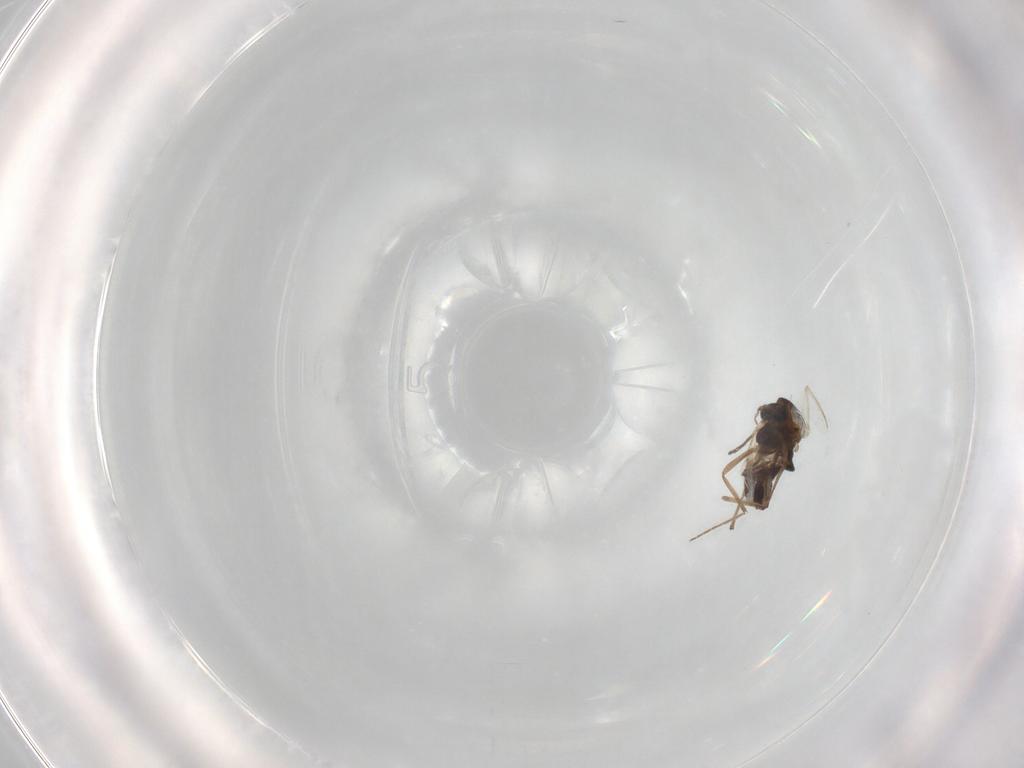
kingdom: Animalia
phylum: Arthropoda
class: Insecta
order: Diptera
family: Chironomidae
